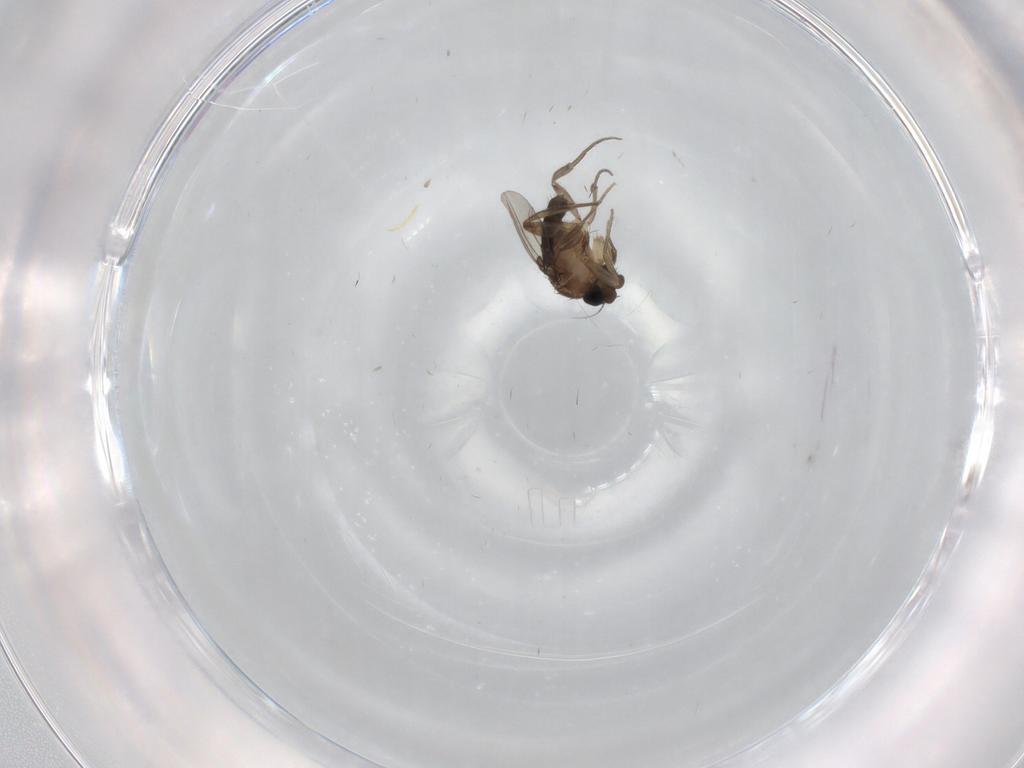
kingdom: Animalia
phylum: Arthropoda
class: Insecta
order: Diptera
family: Phoridae
